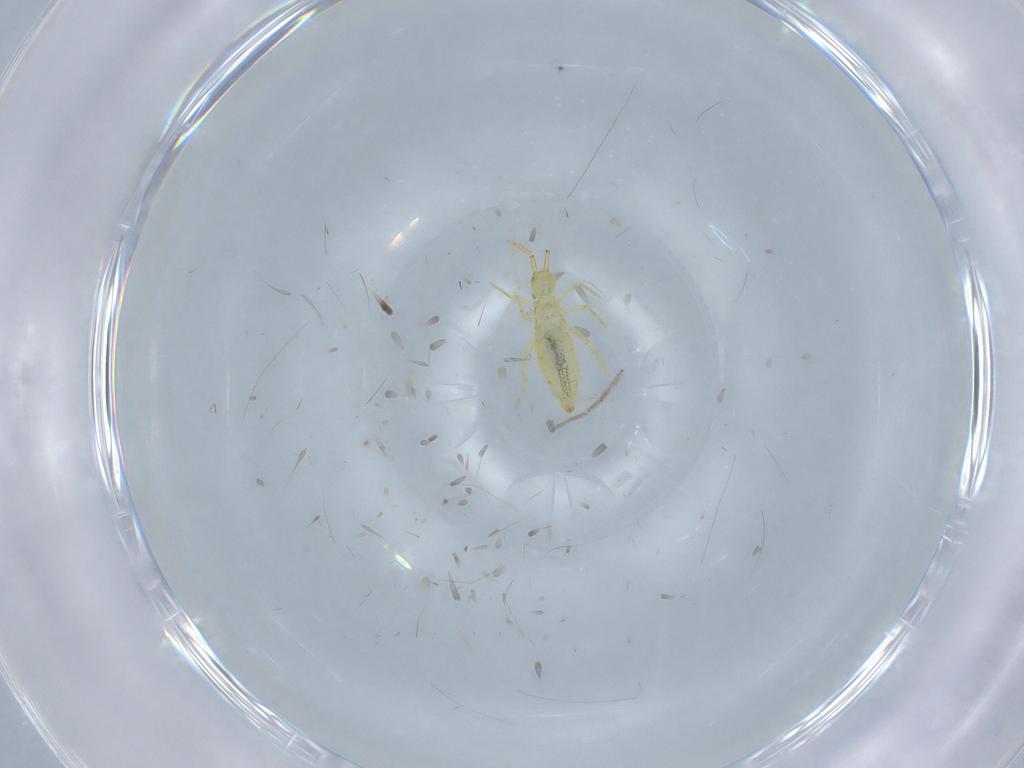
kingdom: Animalia
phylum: Arthropoda
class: Collembola
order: Entomobryomorpha
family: Paronellidae
